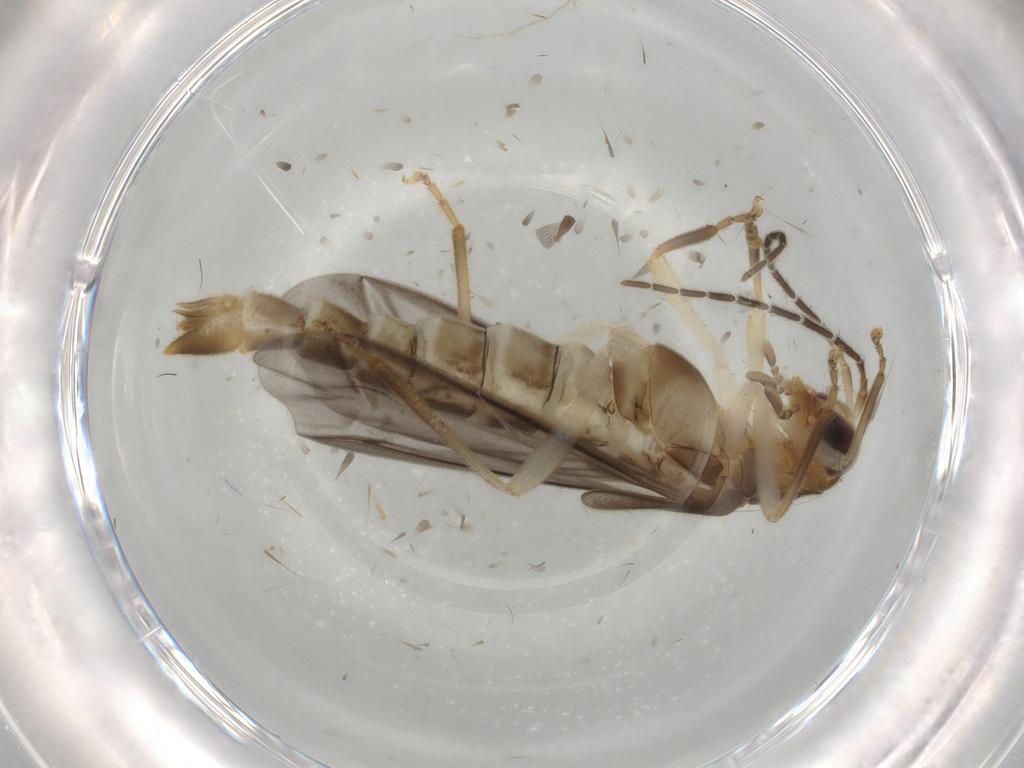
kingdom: Animalia
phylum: Arthropoda
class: Insecta
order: Coleoptera
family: Cantharidae
